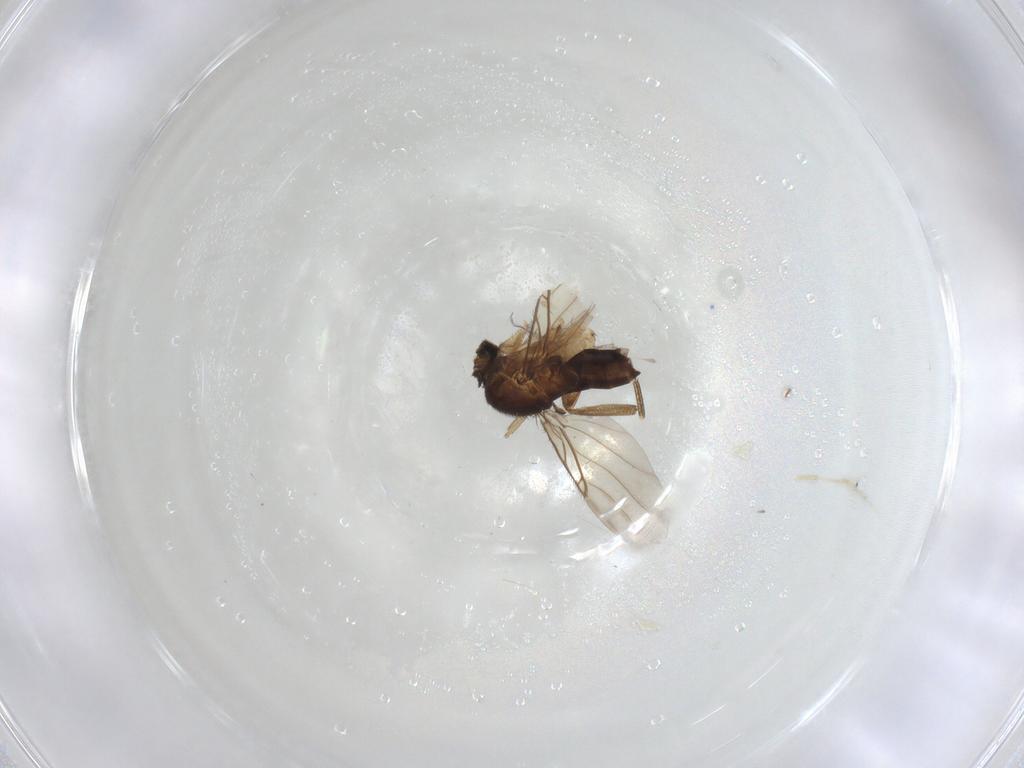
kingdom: Animalia
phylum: Arthropoda
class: Insecta
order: Diptera
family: Phoridae
